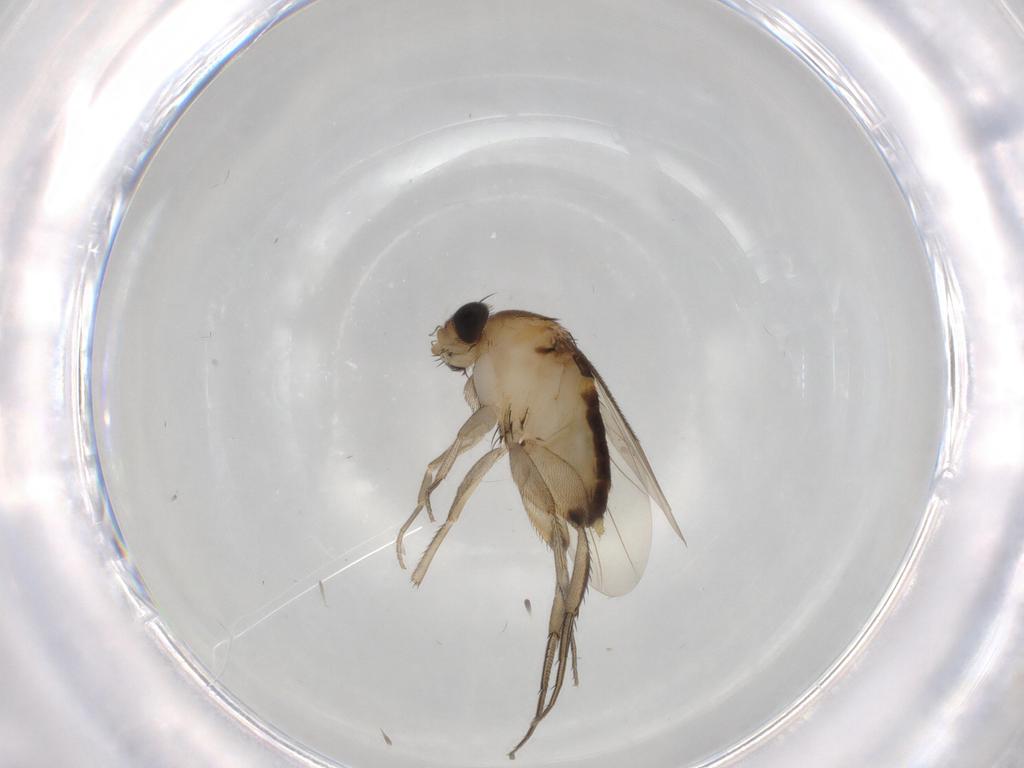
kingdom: Animalia
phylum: Arthropoda
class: Insecta
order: Diptera
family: Phoridae
